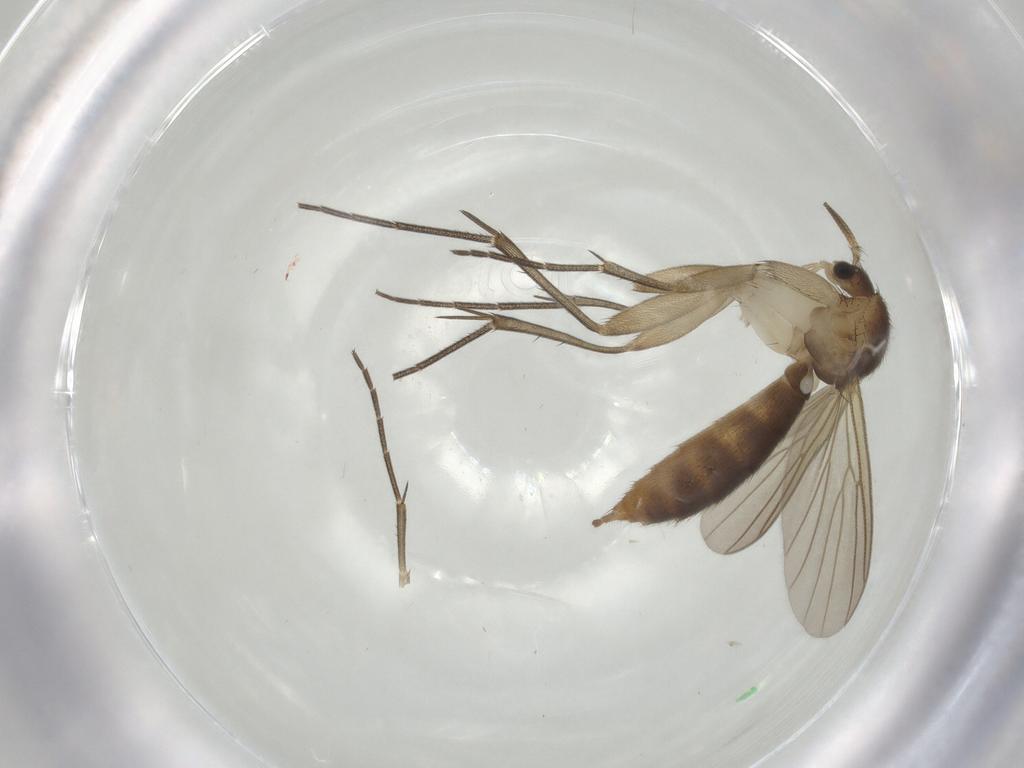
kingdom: Animalia
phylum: Arthropoda
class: Insecta
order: Diptera
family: Mycetophilidae
